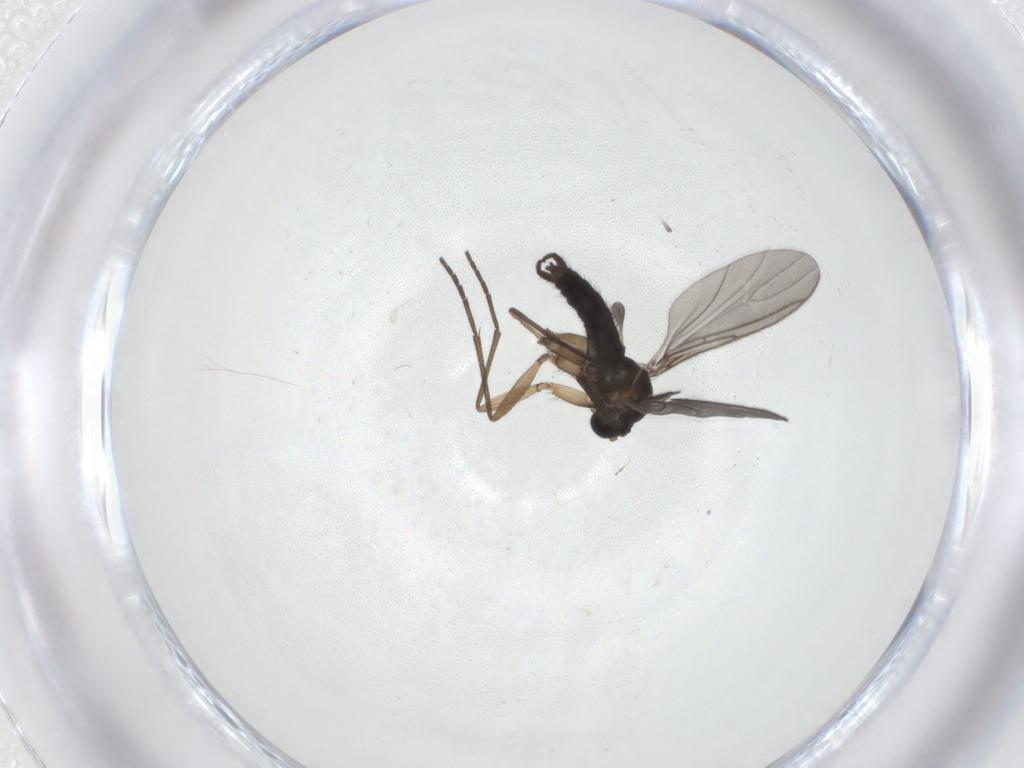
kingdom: Animalia
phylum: Arthropoda
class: Insecta
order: Diptera
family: Sciaridae
